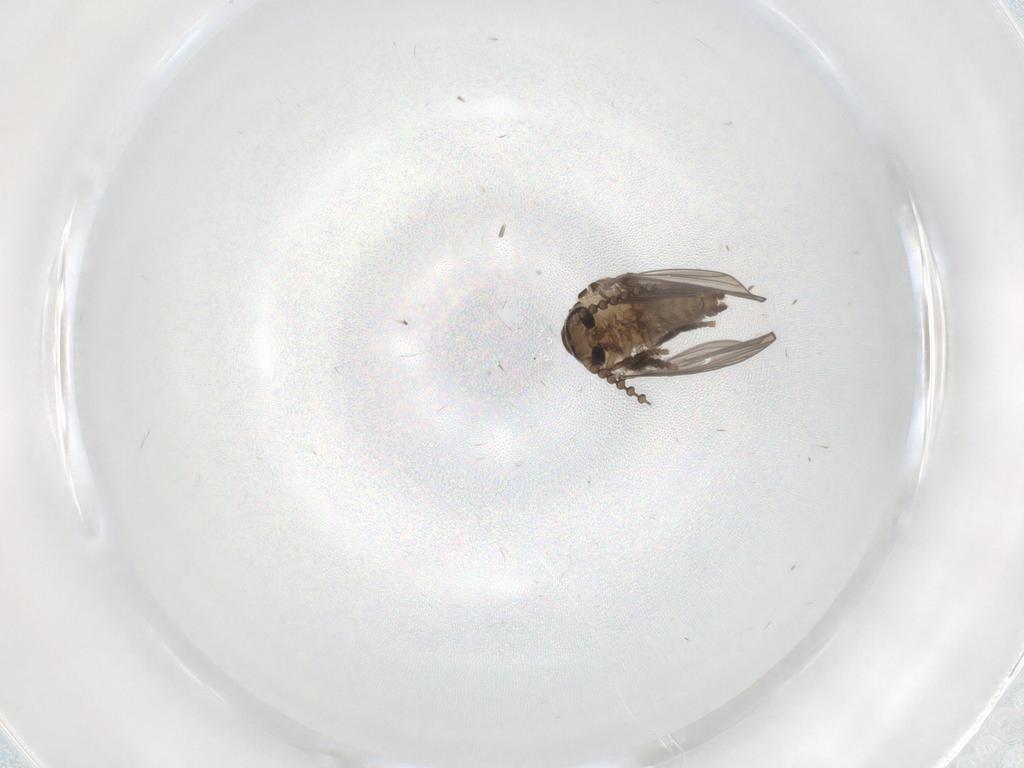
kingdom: Animalia
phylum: Arthropoda
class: Insecta
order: Diptera
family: Psychodidae
